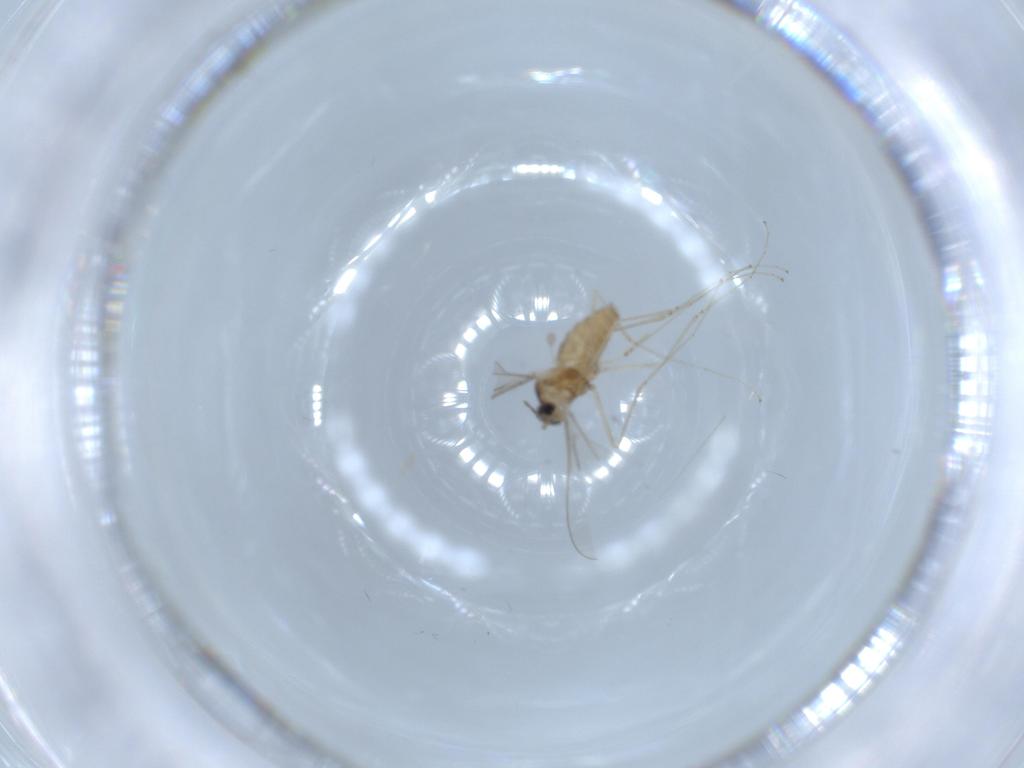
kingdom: Animalia
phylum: Arthropoda
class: Insecta
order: Diptera
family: Cecidomyiidae
